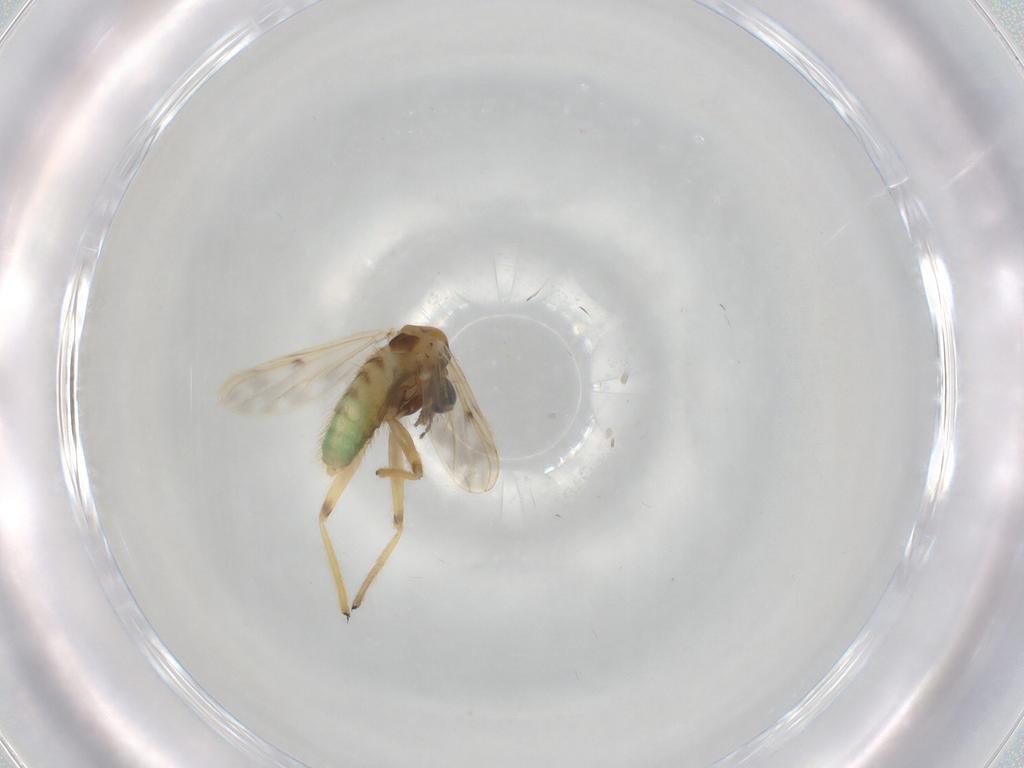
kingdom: Animalia
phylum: Arthropoda
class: Insecta
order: Diptera
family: Chironomidae
